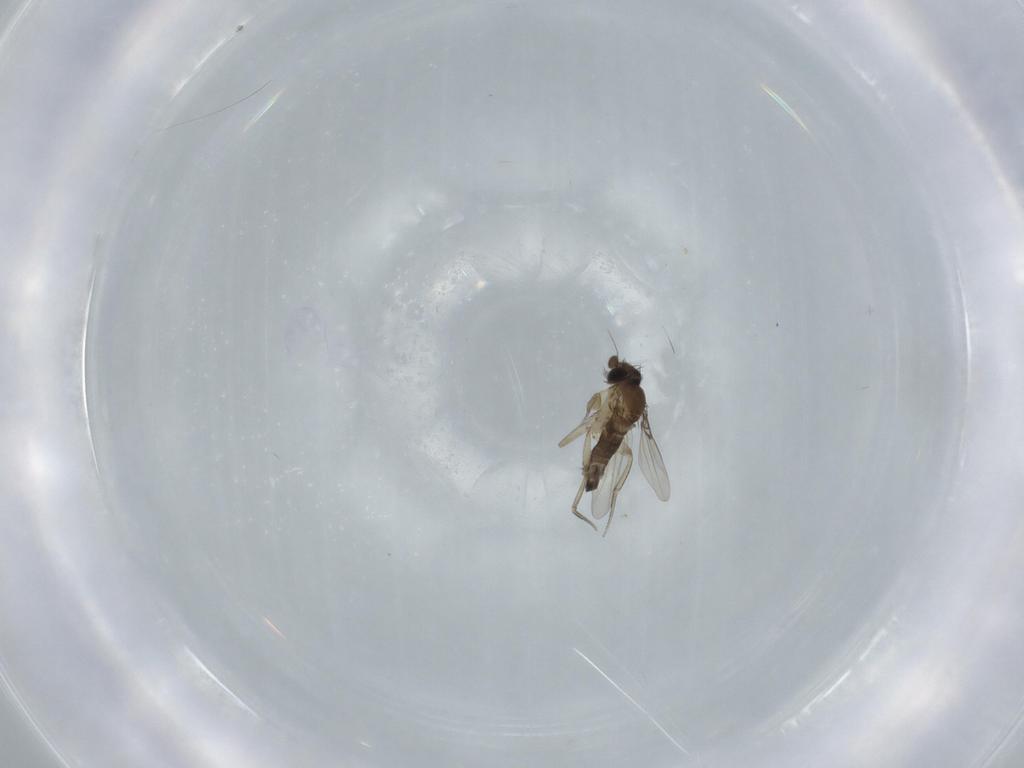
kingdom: Animalia
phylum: Arthropoda
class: Insecta
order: Diptera
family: Phoridae
